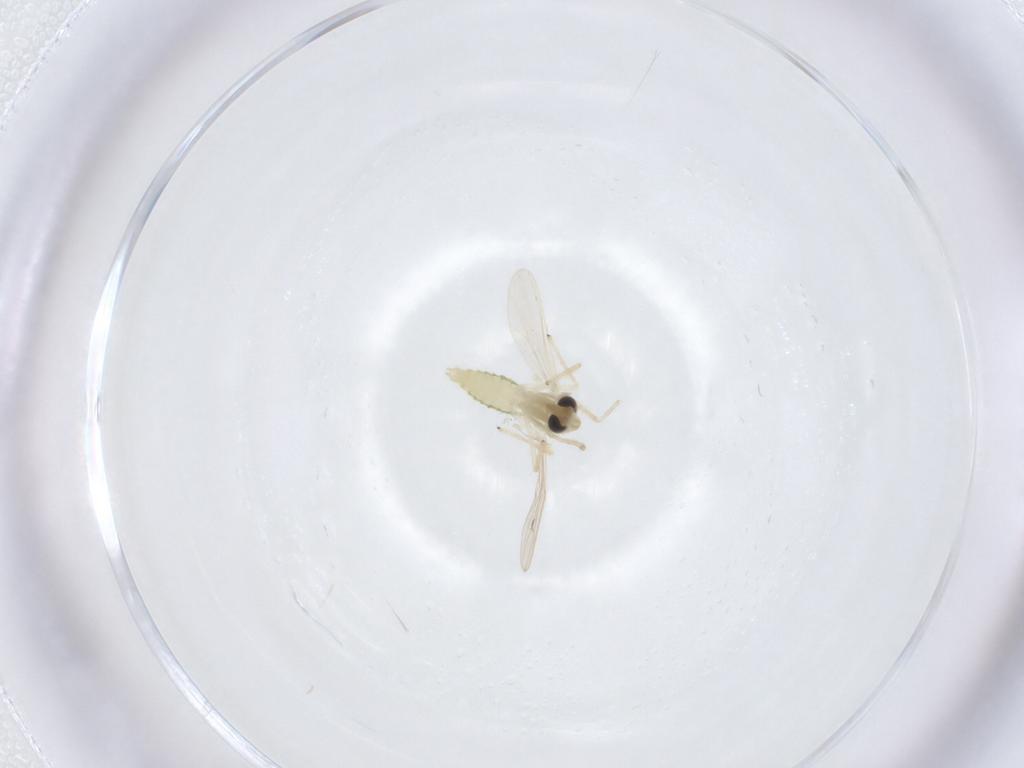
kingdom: Animalia
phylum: Arthropoda
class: Insecta
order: Diptera
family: Chironomidae
